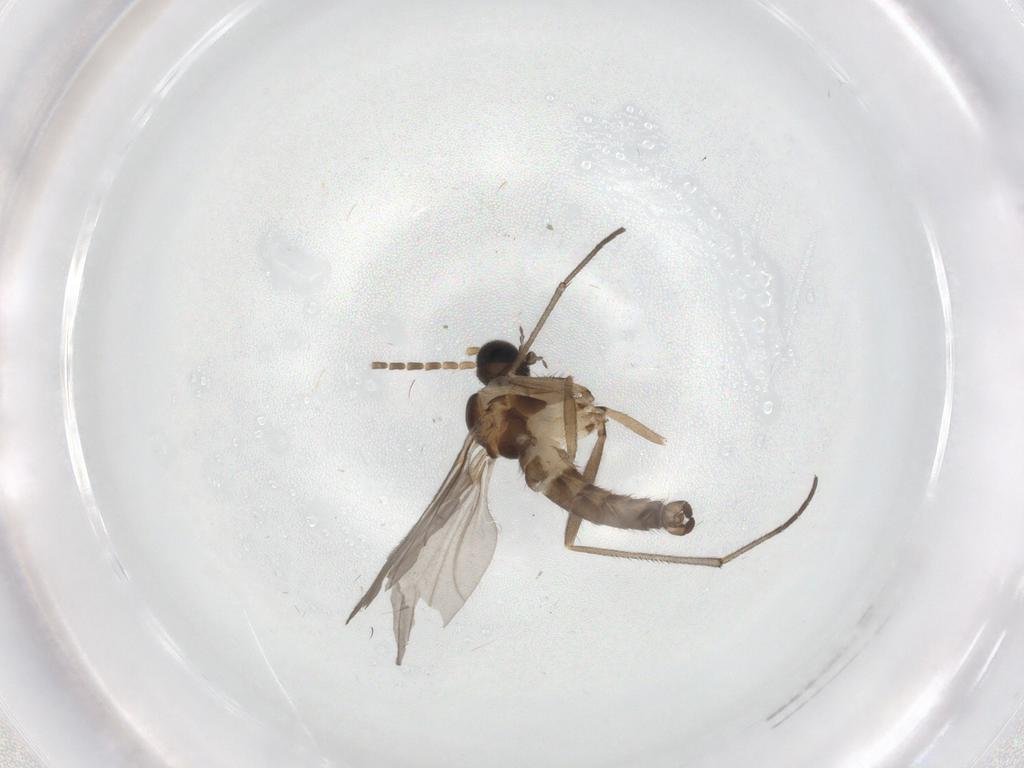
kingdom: Animalia
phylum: Arthropoda
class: Insecta
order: Diptera
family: Sciaridae
